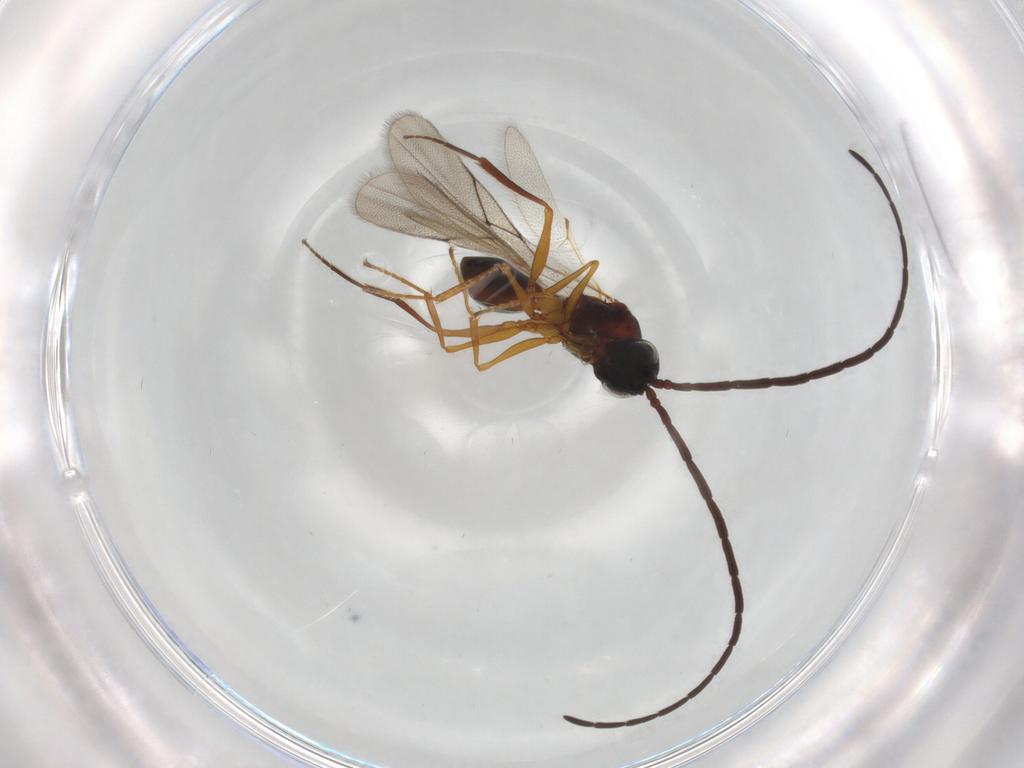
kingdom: Animalia
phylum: Arthropoda
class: Insecta
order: Hymenoptera
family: Figitidae
